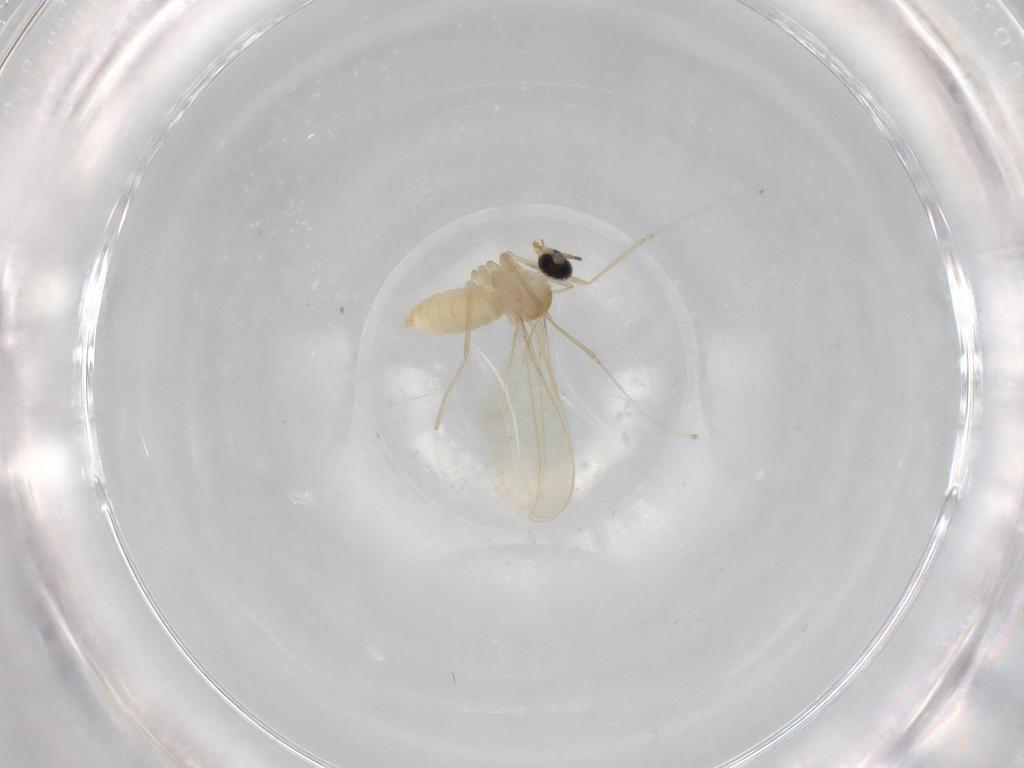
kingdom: Animalia
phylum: Arthropoda
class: Insecta
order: Diptera
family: Cecidomyiidae
